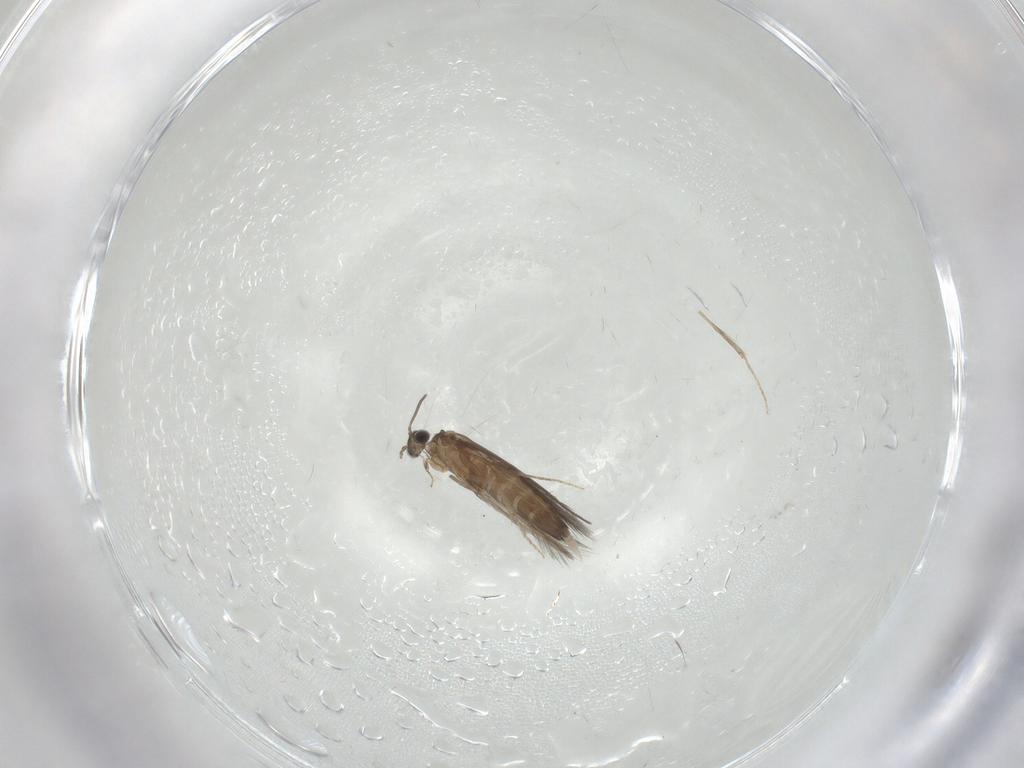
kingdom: Animalia
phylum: Arthropoda
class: Insecta
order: Trichoptera
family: Hydroptilidae
